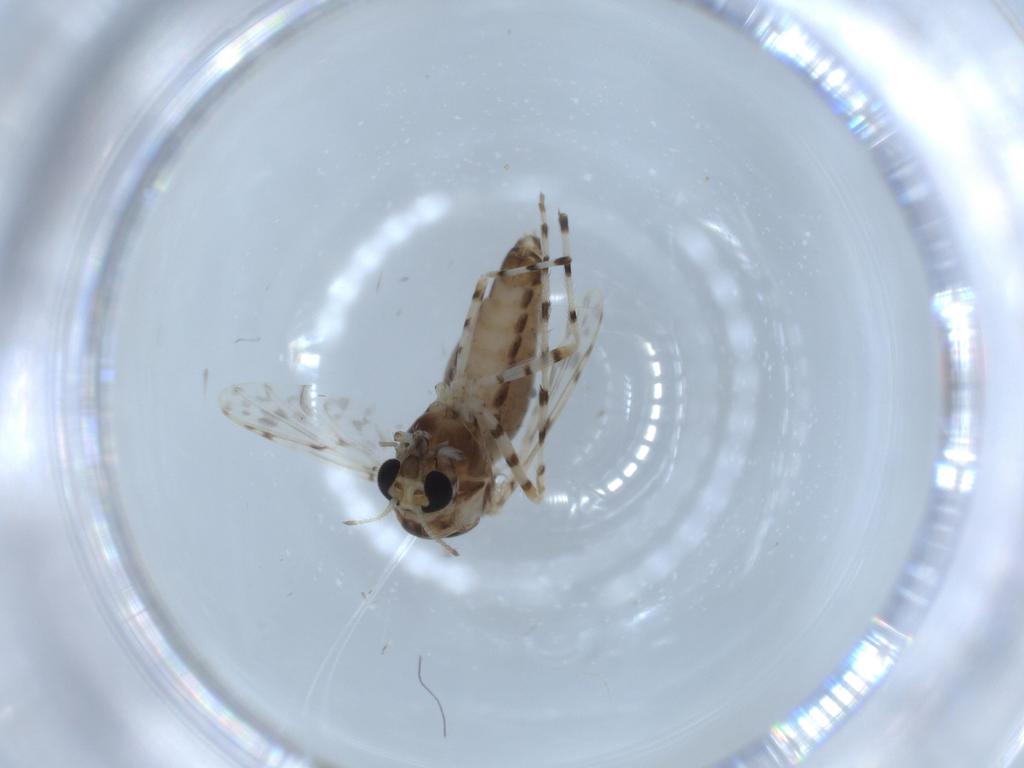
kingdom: Animalia
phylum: Arthropoda
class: Insecta
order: Diptera
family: Chironomidae
